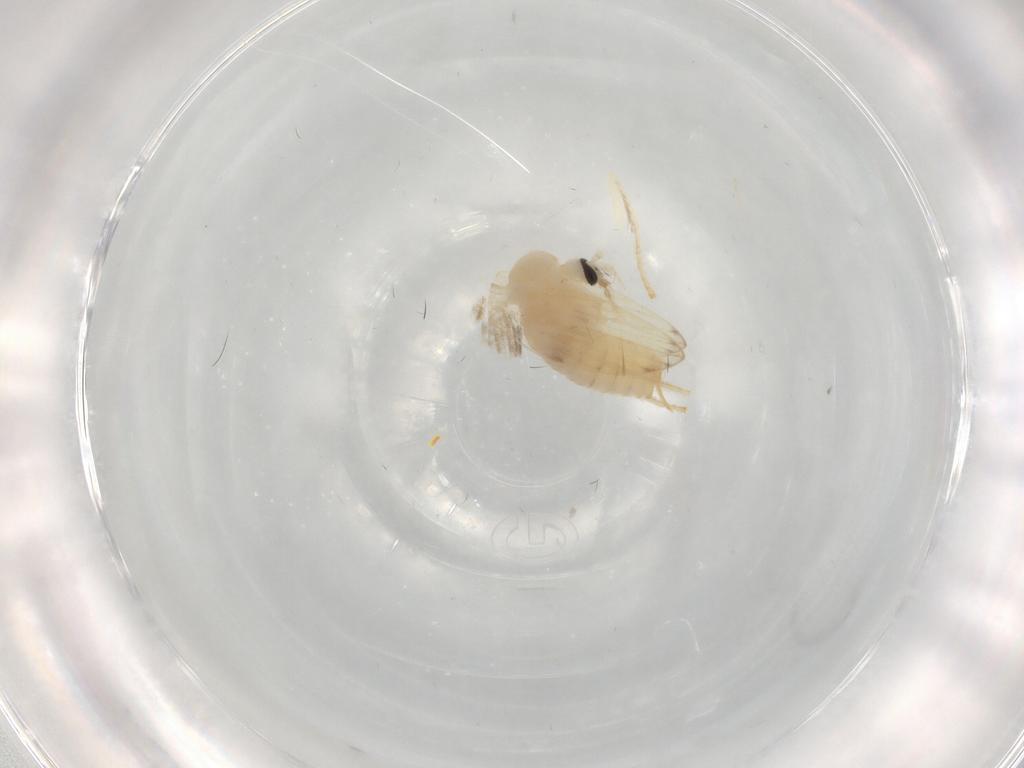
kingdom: Animalia
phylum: Arthropoda
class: Insecta
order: Diptera
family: Psychodidae
